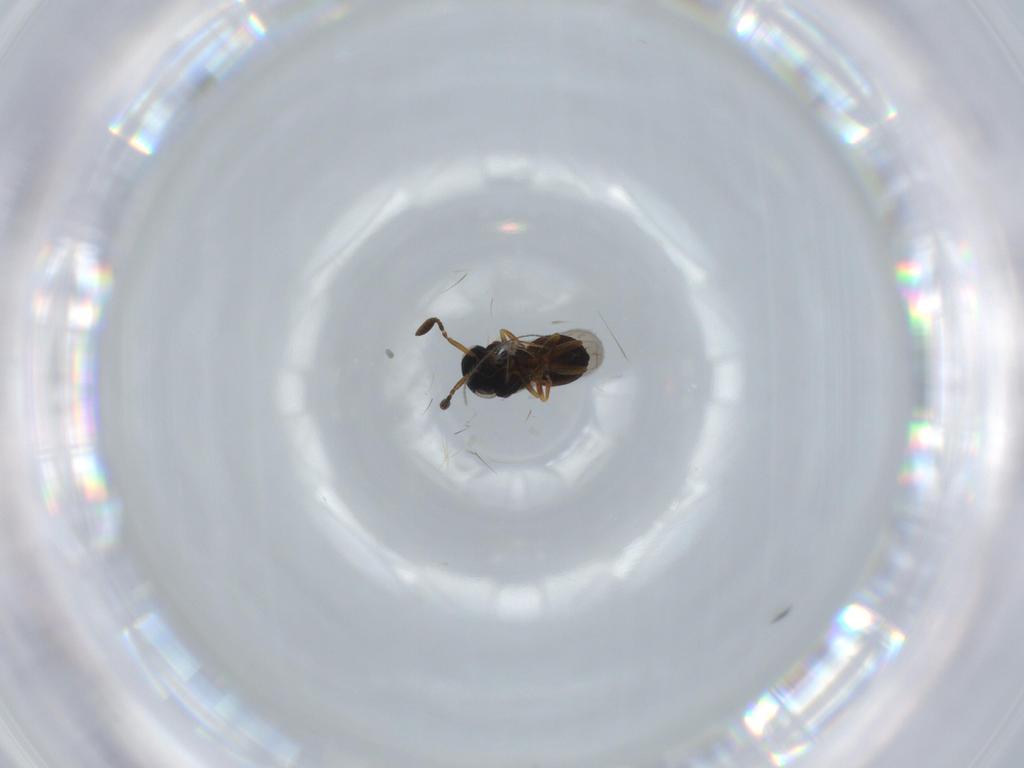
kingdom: Animalia
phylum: Arthropoda
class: Insecta
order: Hymenoptera
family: Scelionidae
